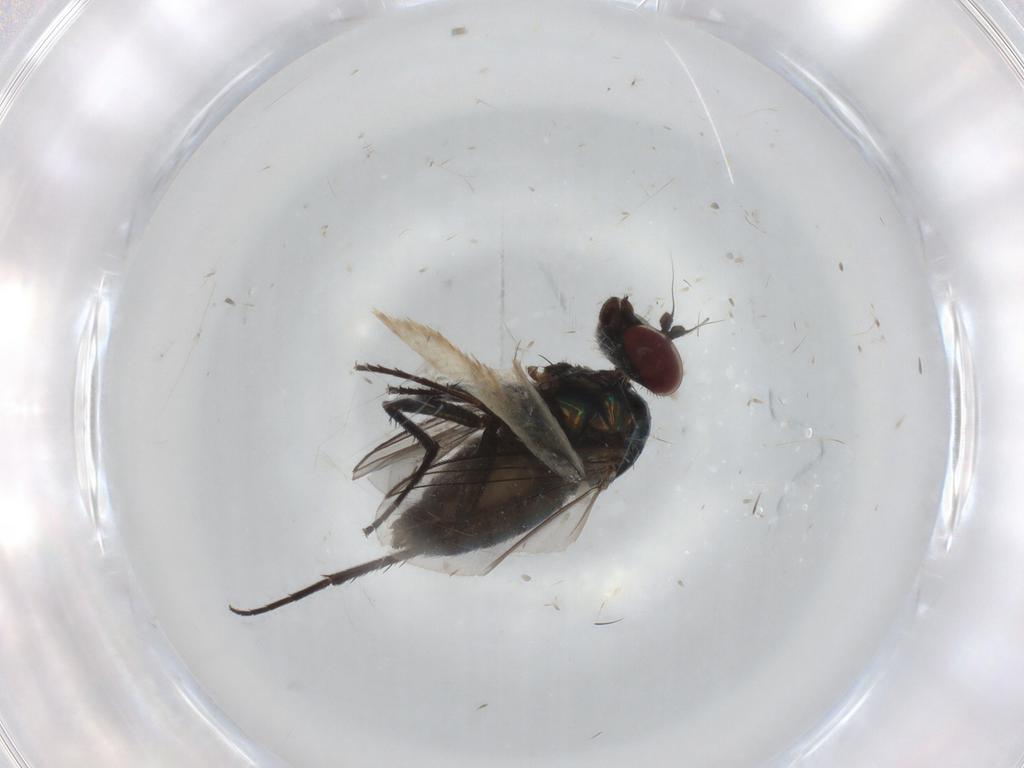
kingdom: Animalia
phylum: Arthropoda
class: Insecta
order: Diptera
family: Dolichopodidae
